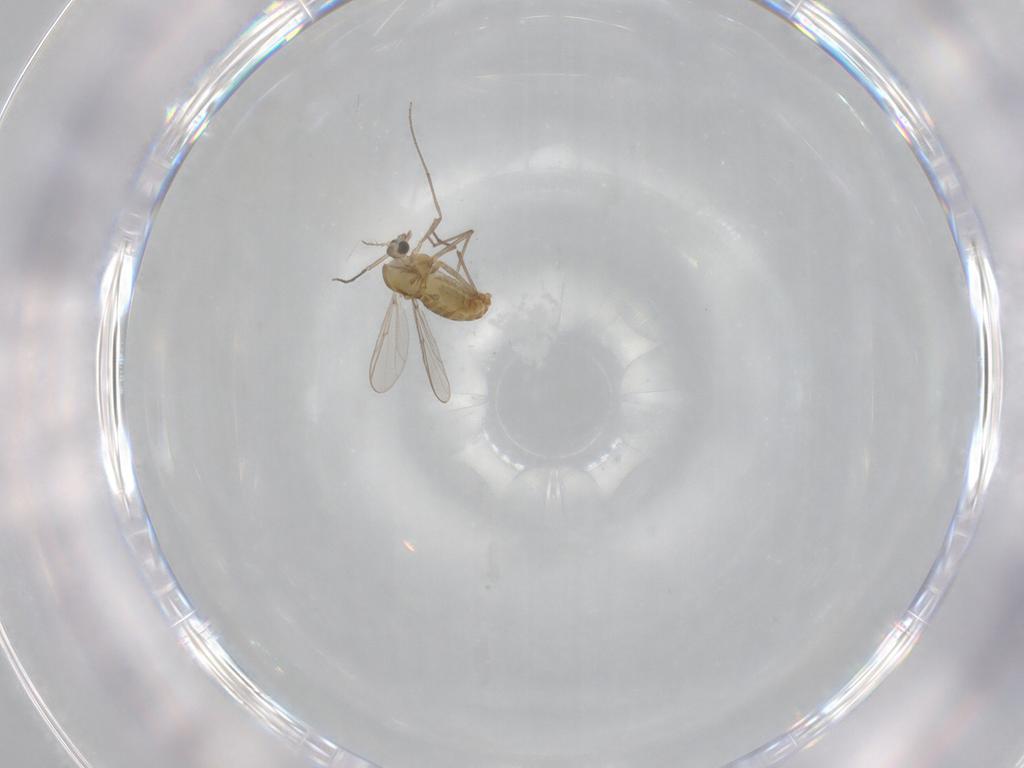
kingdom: Animalia
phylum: Arthropoda
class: Insecta
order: Diptera
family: Chironomidae
